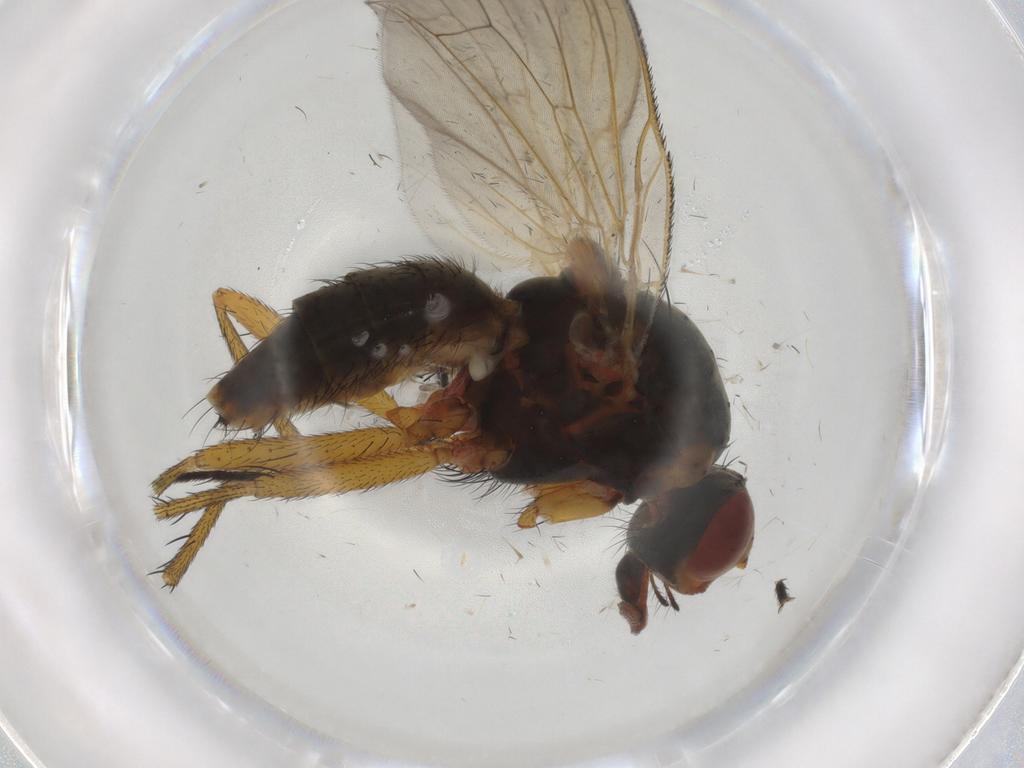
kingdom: Animalia
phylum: Arthropoda
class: Insecta
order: Diptera
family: Anthomyiidae
